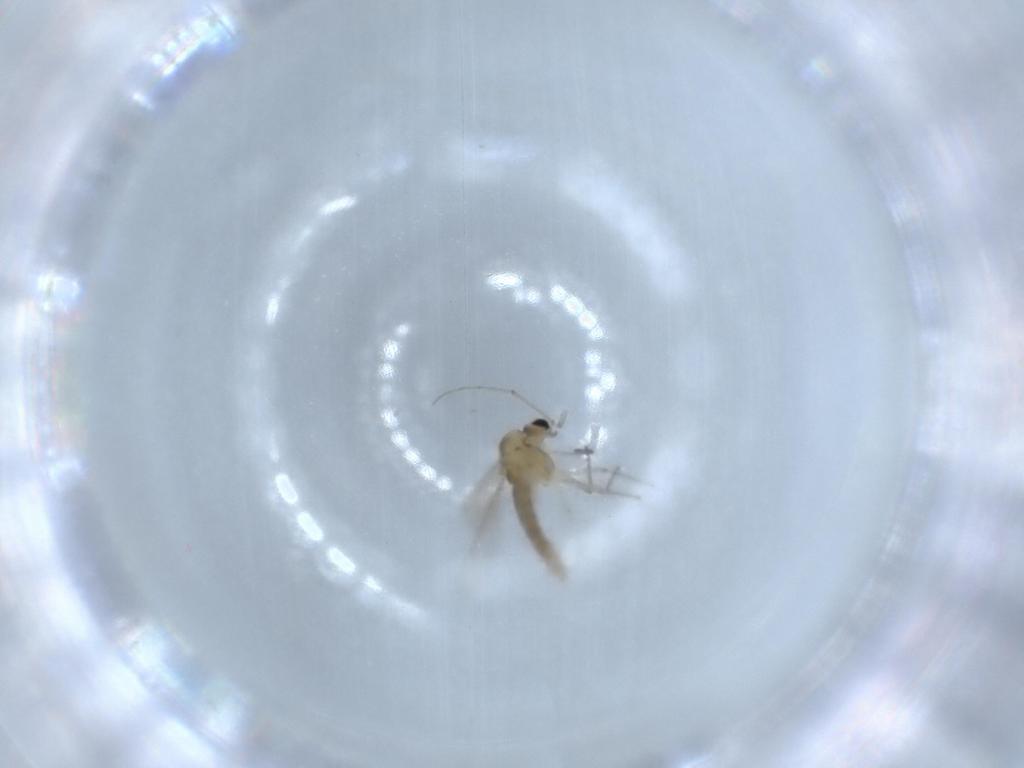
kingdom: Animalia
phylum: Arthropoda
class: Insecta
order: Diptera
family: Chironomidae
